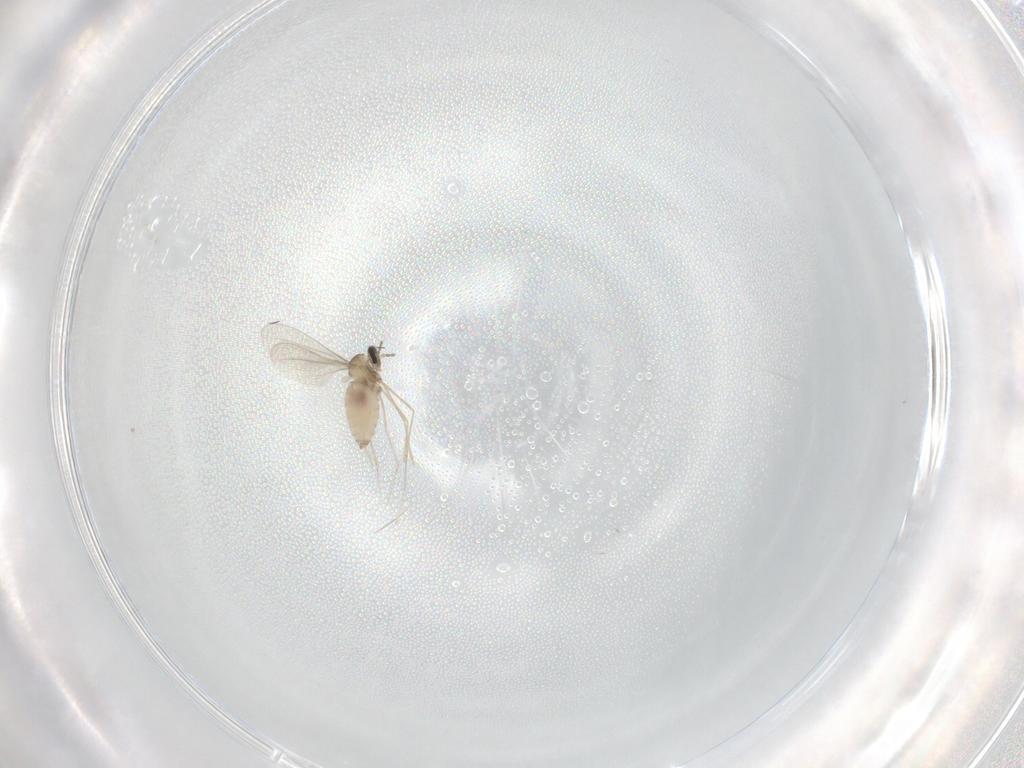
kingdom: Animalia
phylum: Arthropoda
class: Insecta
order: Diptera
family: Cecidomyiidae
